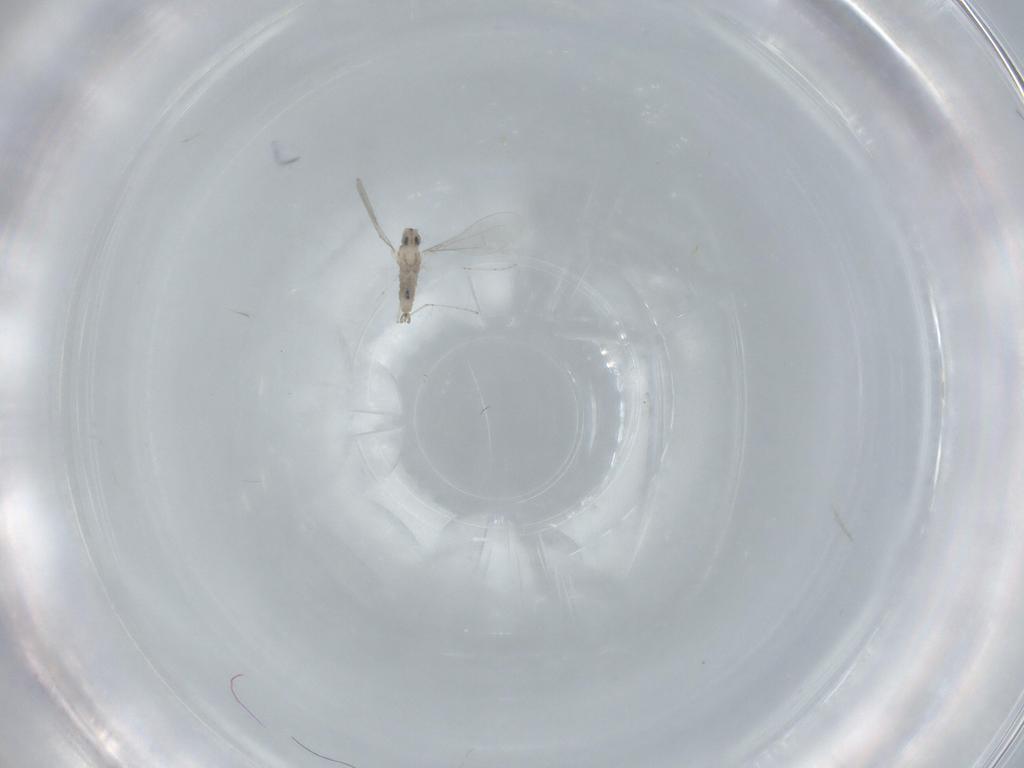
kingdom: Animalia
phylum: Arthropoda
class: Insecta
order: Diptera
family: Cecidomyiidae
